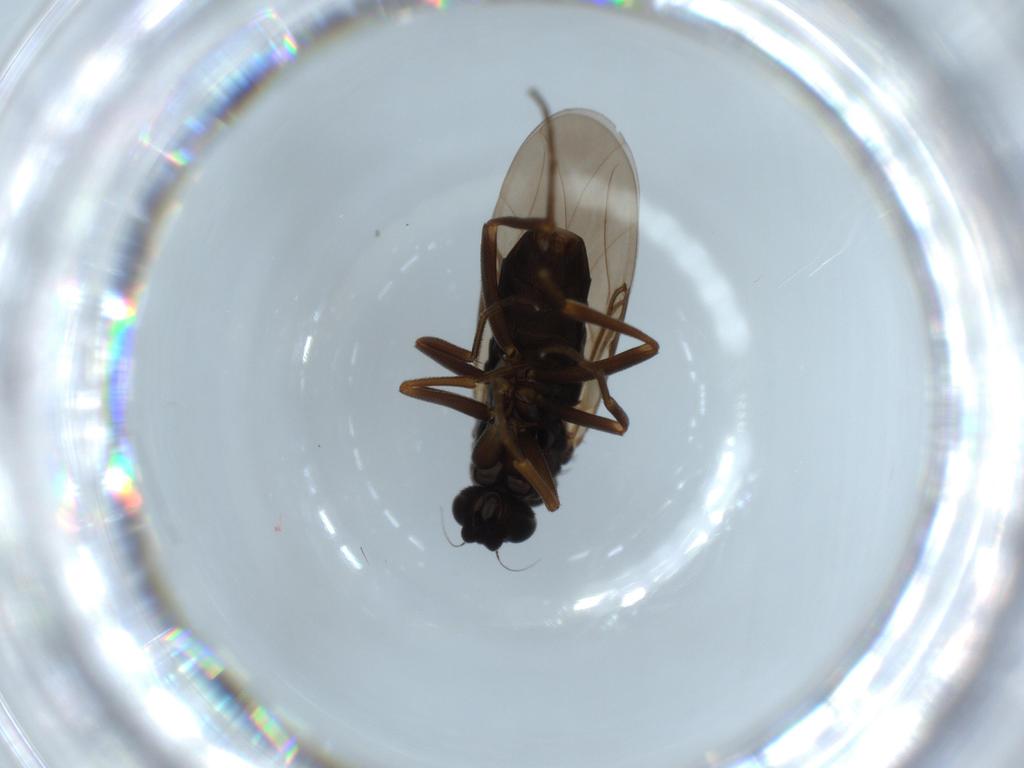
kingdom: Animalia
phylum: Arthropoda
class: Insecta
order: Diptera
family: Phoridae
